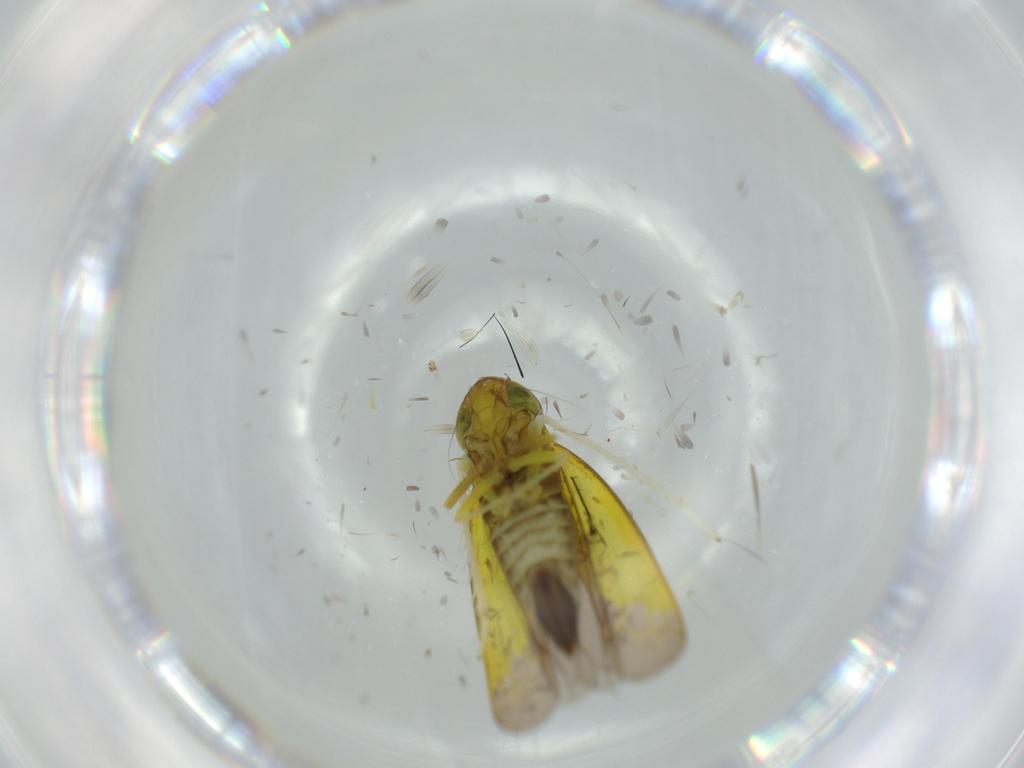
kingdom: Animalia
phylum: Arthropoda
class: Insecta
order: Hemiptera
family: Cicadellidae
